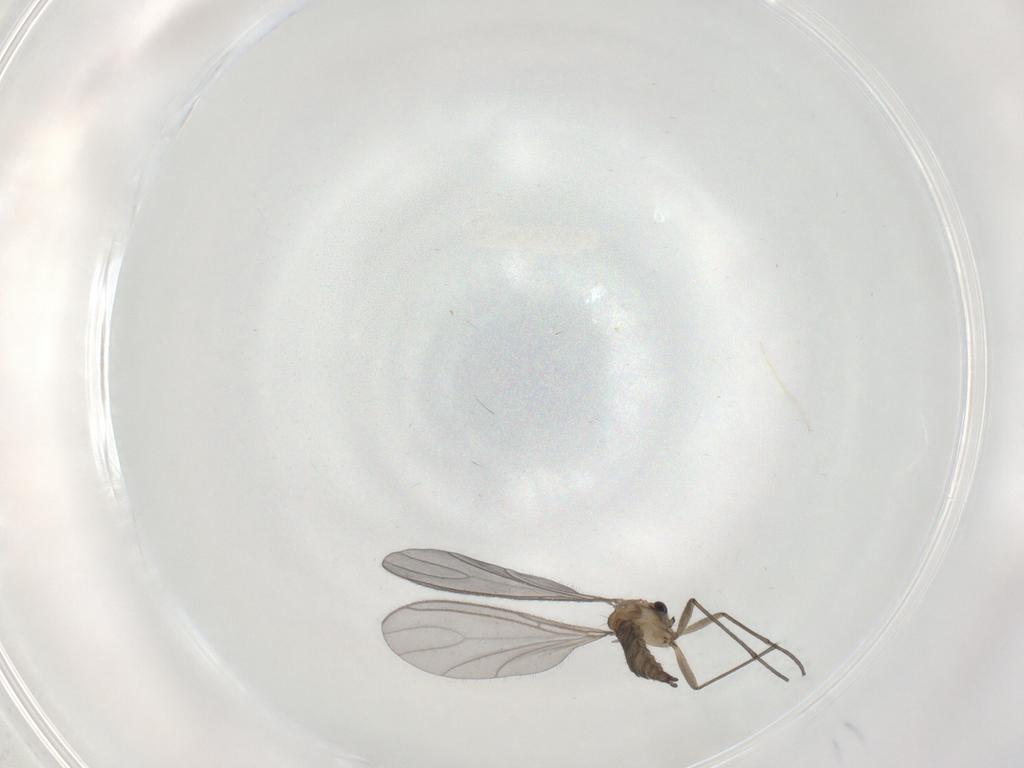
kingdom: Animalia
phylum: Arthropoda
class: Insecta
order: Diptera
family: Sciaridae
